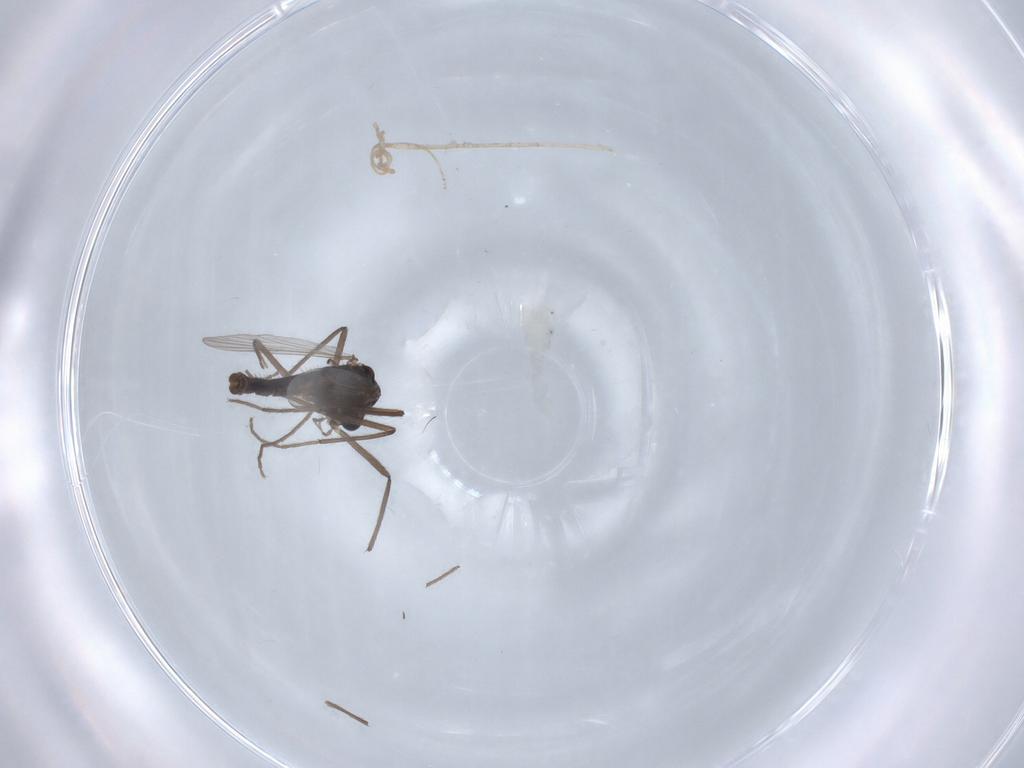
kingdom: Animalia
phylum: Arthropoda
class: Insecta
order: Diptera
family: Chironomidae
